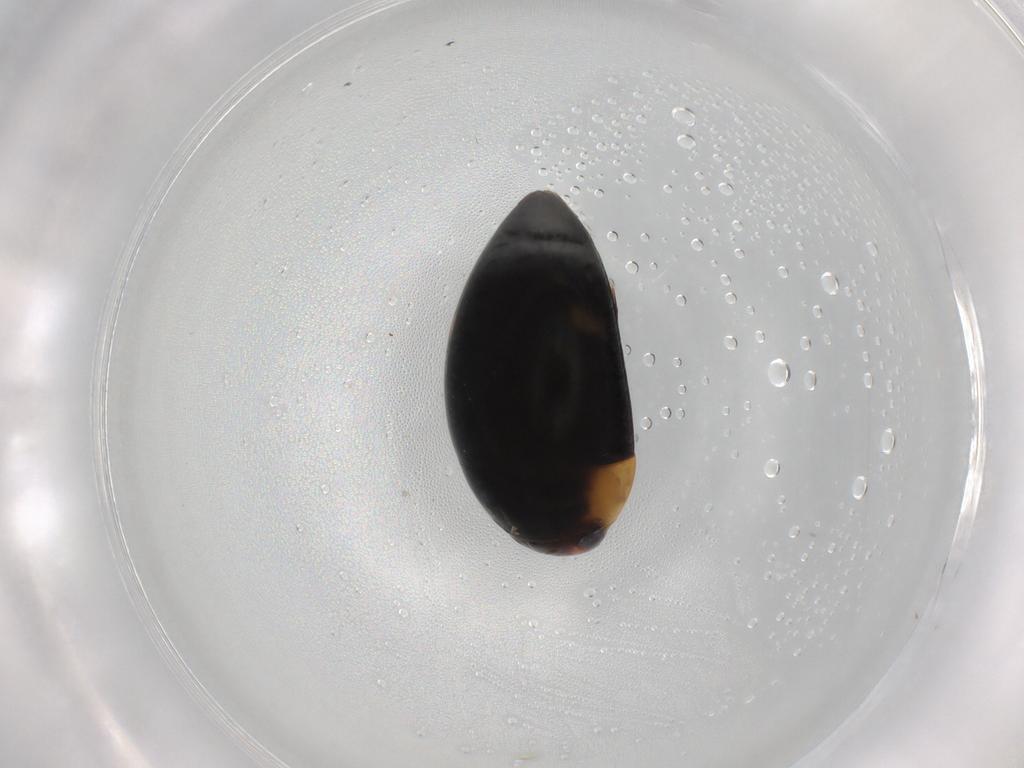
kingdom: Animalia
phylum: Arthropoda
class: Insecta
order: Coleoptera
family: Noteridae
